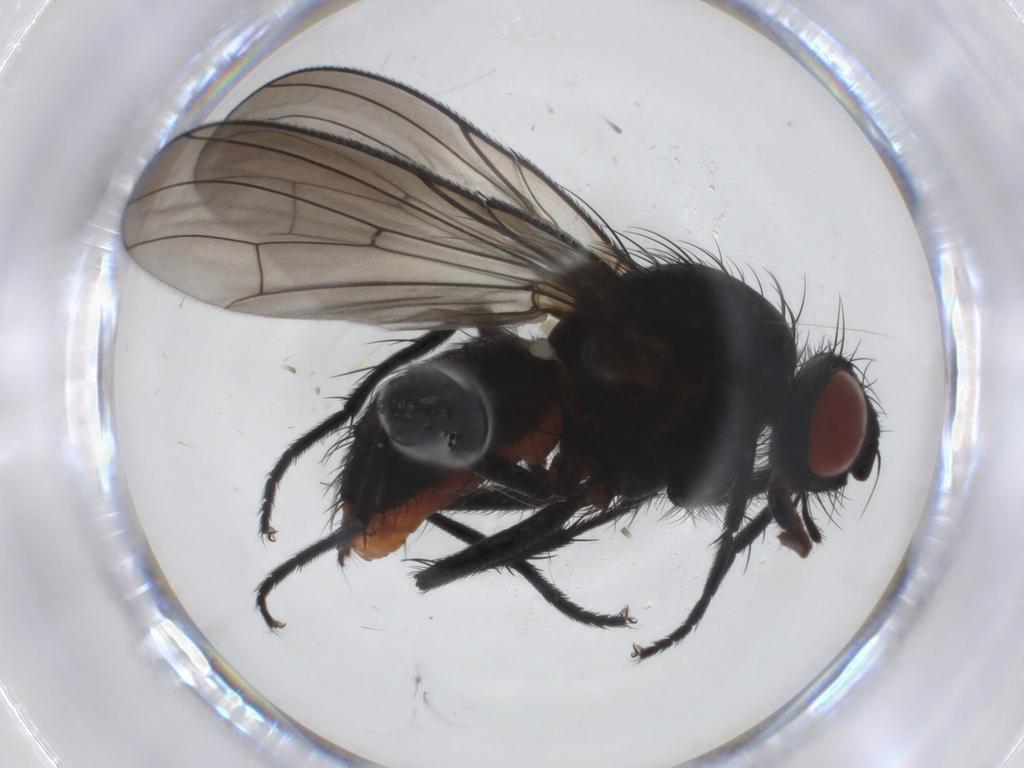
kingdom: Animalia
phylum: Arthropoda
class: Insecta
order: Diptera
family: Anthomyiidae
